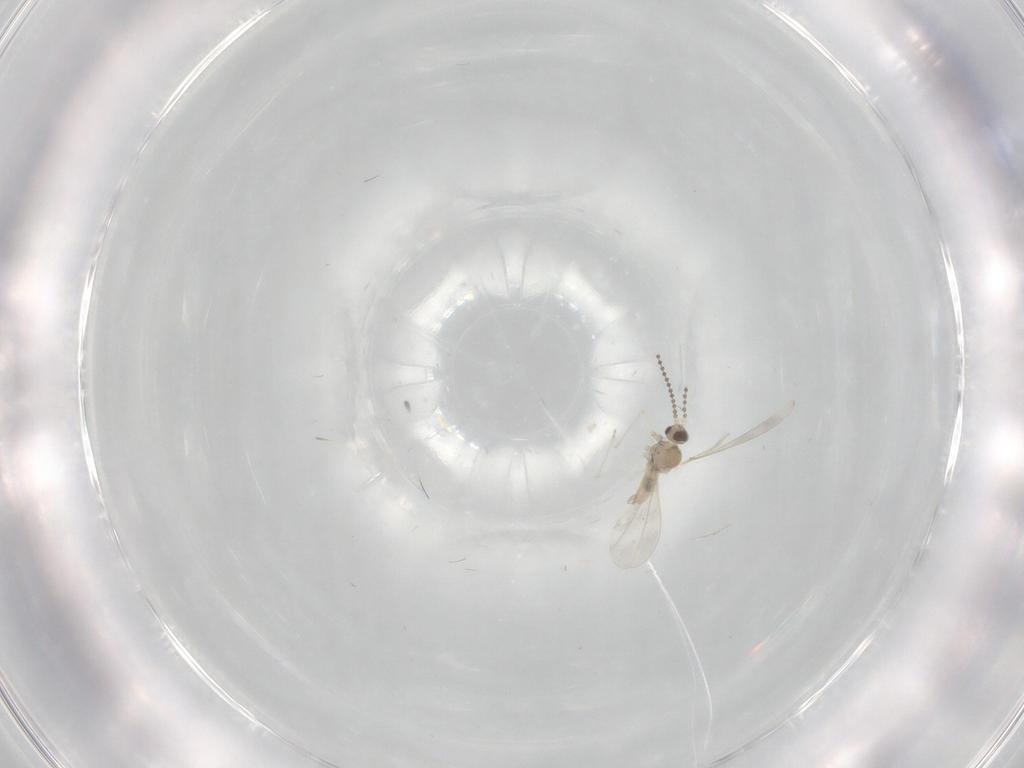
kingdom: Animalia
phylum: Arthropoda
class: Insecta
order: Diptera
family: Cecidomyiidae
